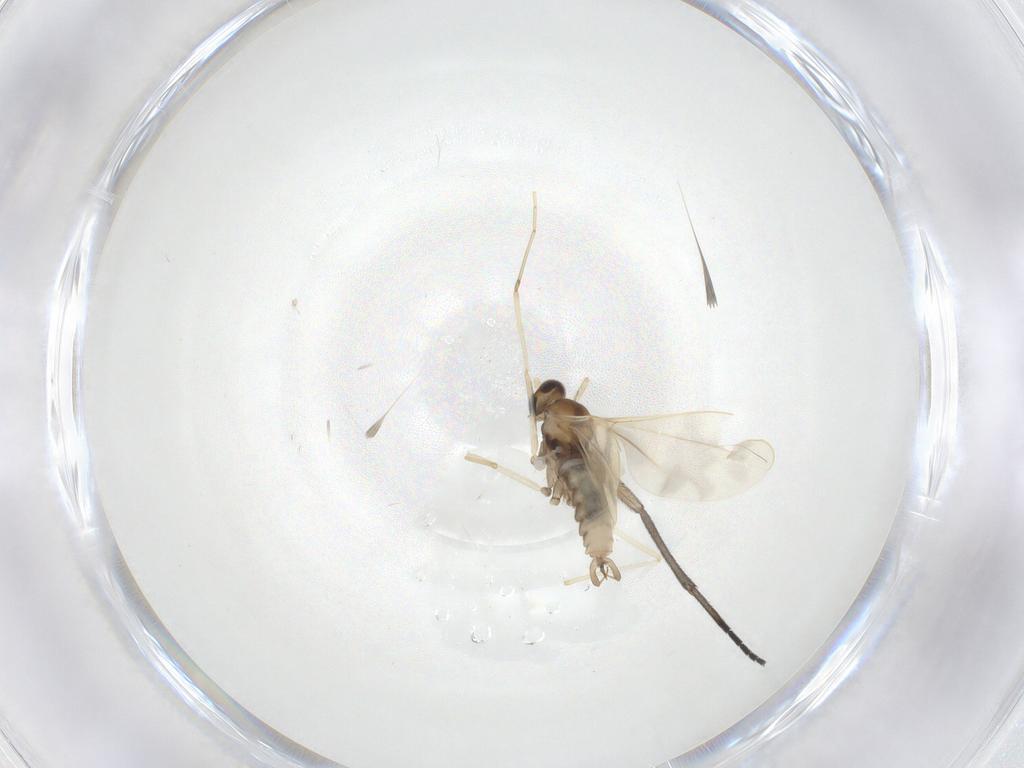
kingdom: Animalia
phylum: Arthropoda
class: Insecta
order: Diptera
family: Cecidomyiidae
